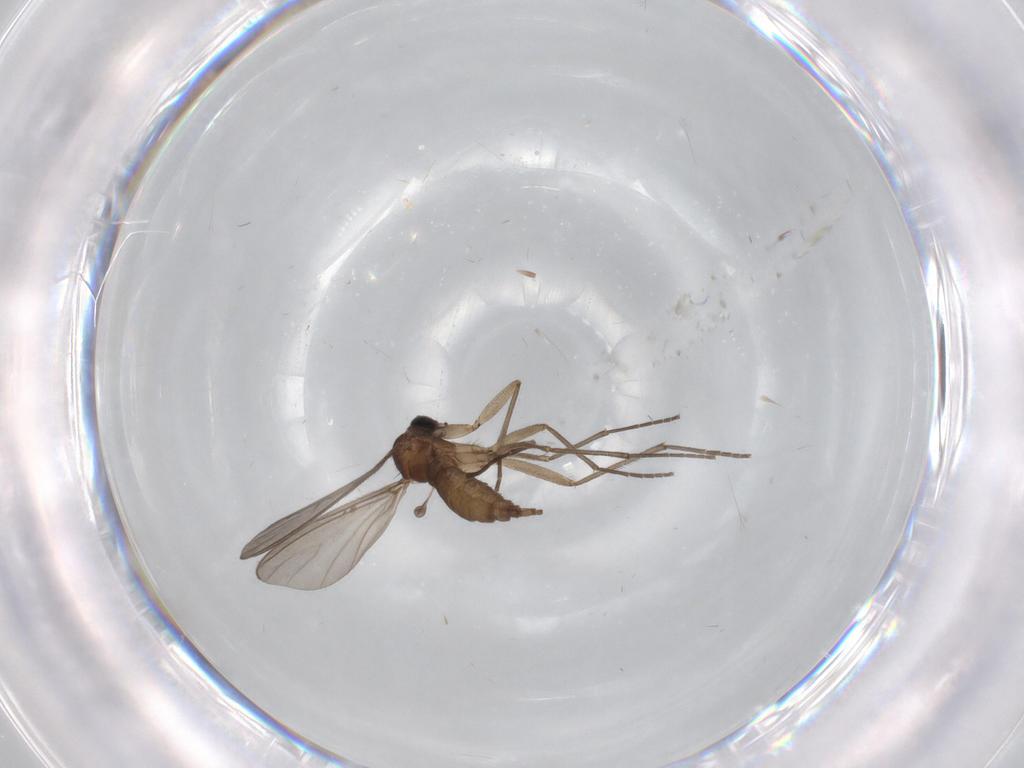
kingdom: Animalia
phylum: Arthropoda
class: Insecta
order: Diptera
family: Sciaridae
